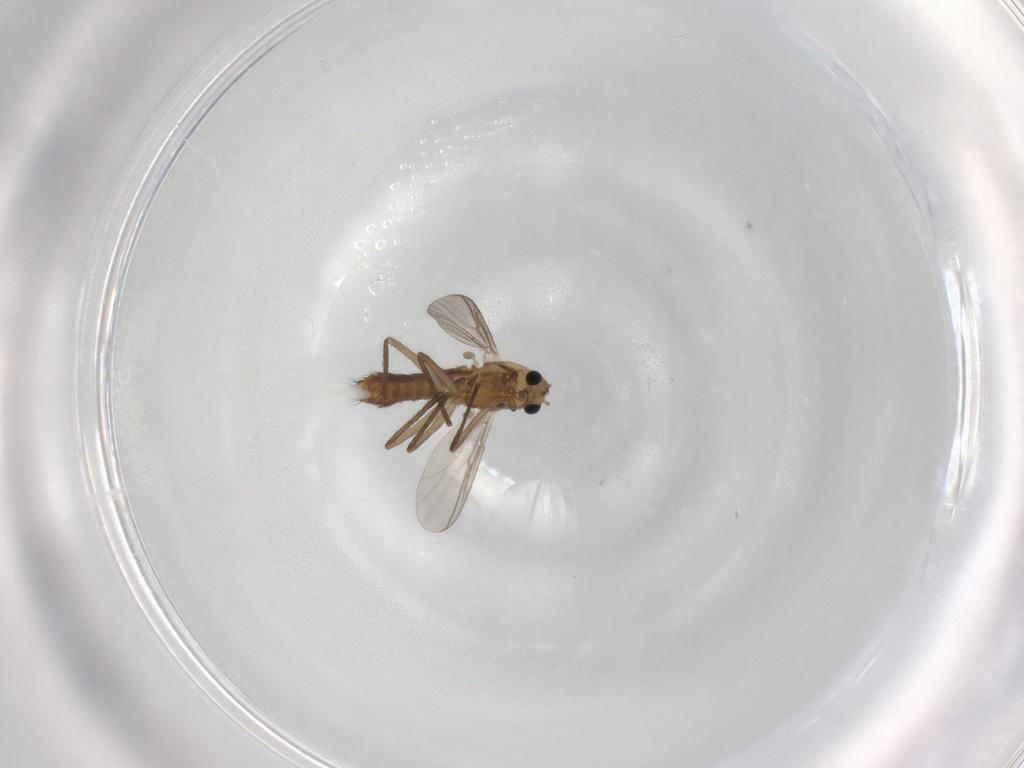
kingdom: Animalia
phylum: Arthropoda
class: Insecta
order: Diptera
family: Chironomidae
